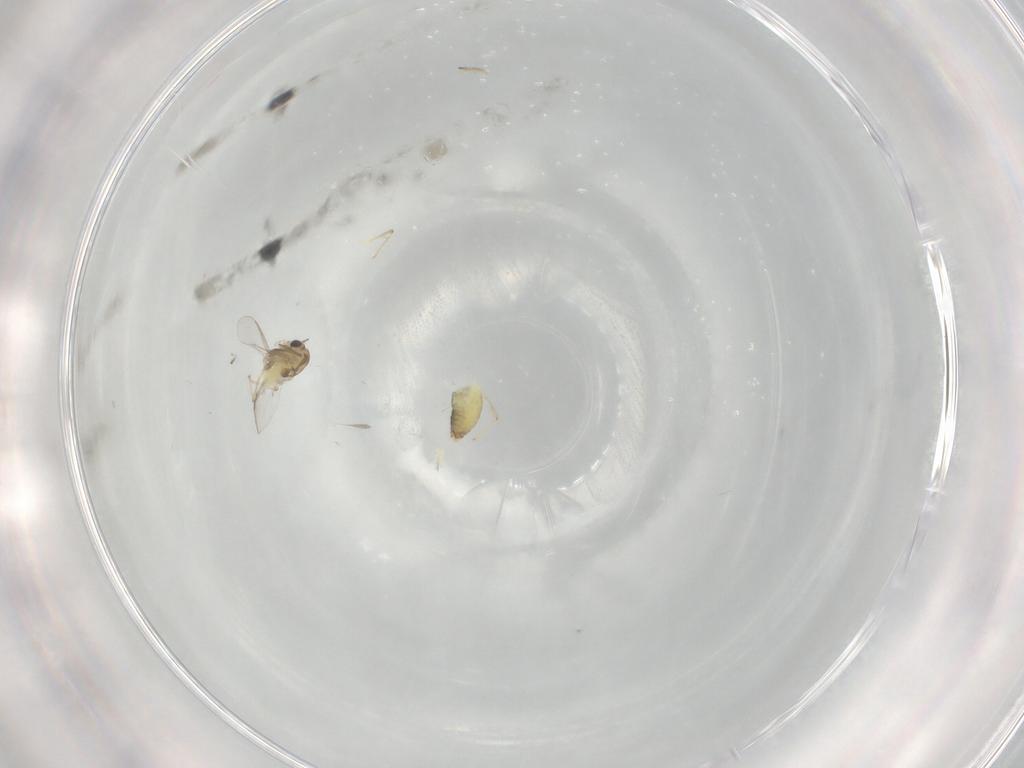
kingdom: Animalia
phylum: Arthropoda
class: Insecta
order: Diptera
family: Chironomidae
